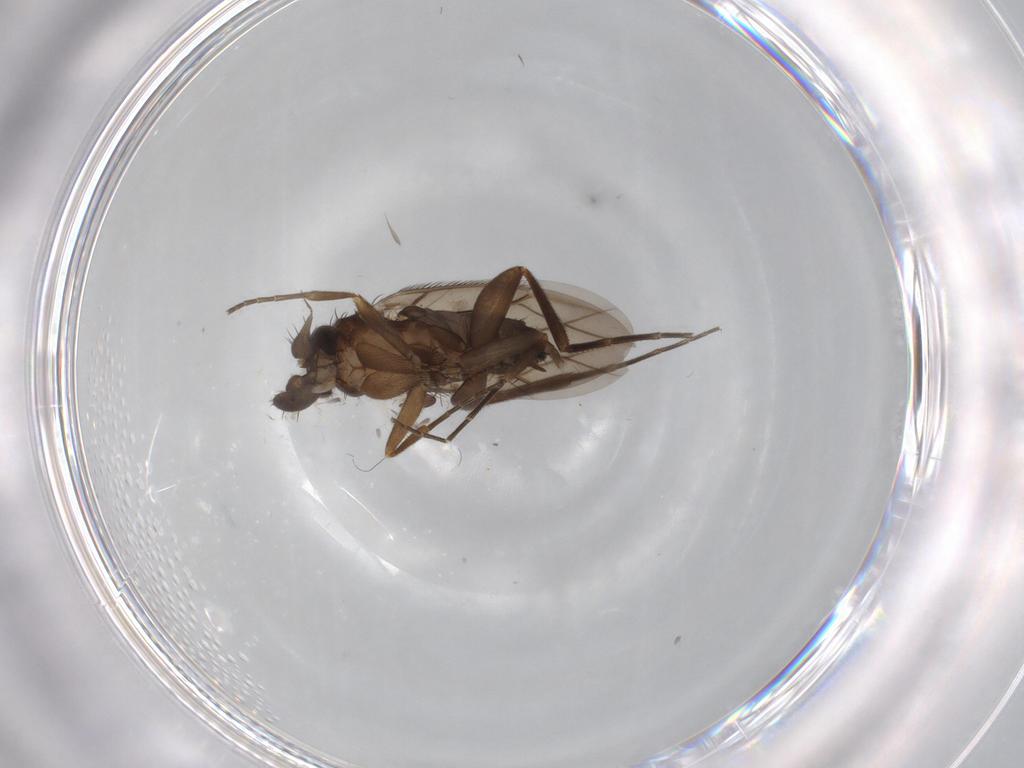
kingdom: Animalia
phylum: Arthropoda
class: Insecta
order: Diptera
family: Phoridae
